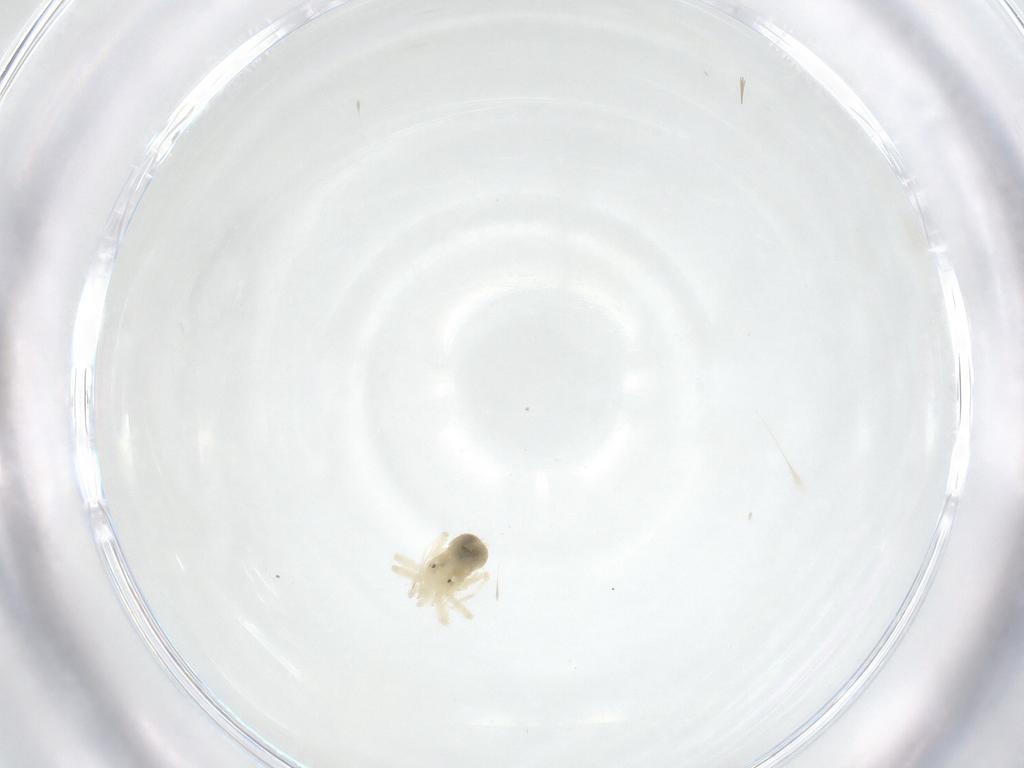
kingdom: Animalia
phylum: Arthropoda
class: Arachnida
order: Trombidiformes
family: Anystidae
